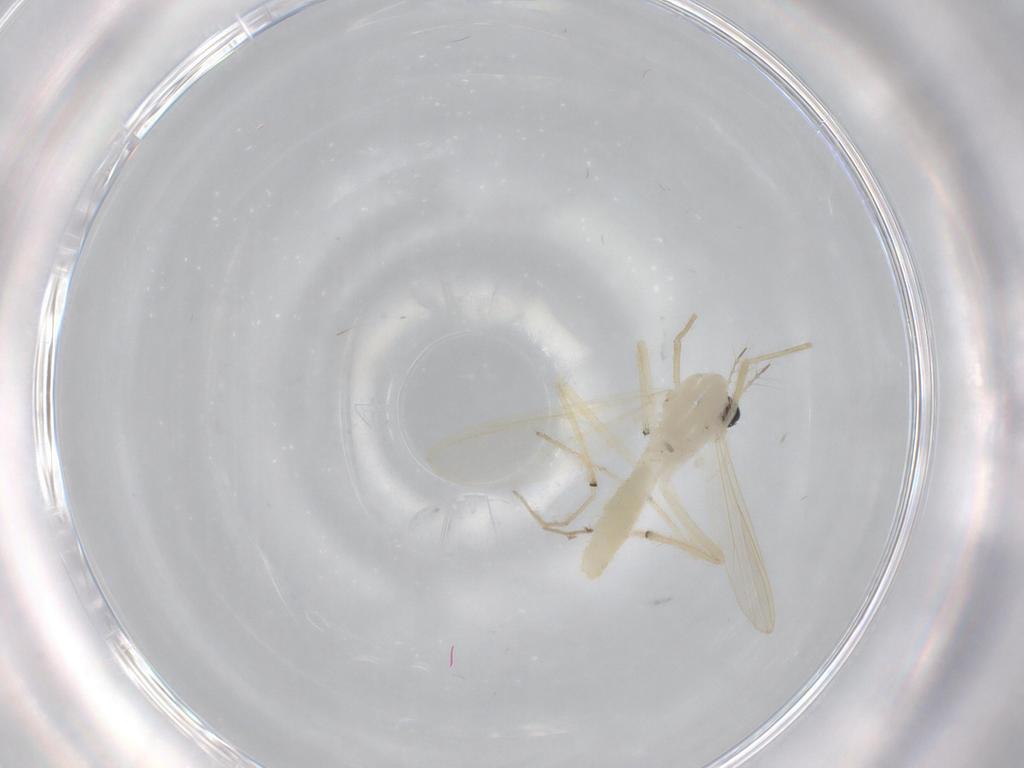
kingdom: Animalia
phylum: Arthropoda
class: Insecta
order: Diptera
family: Chironomidae
